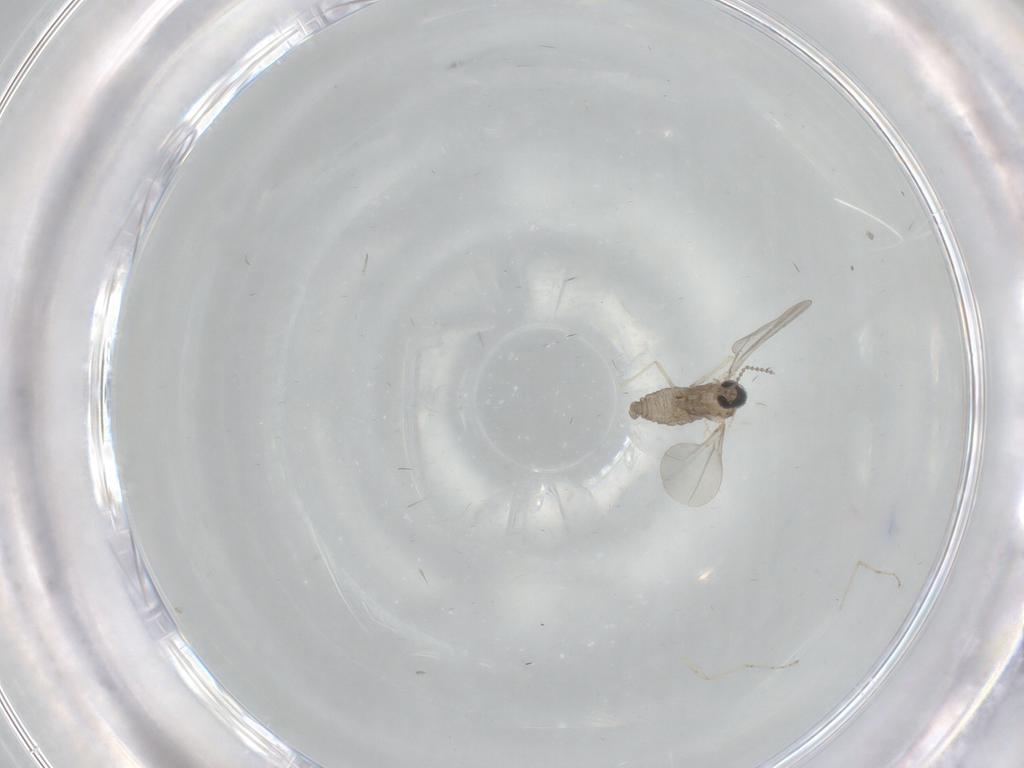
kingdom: Animalia
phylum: Arthropoda
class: Insecta
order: Diptera
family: Cecidomyiidae
